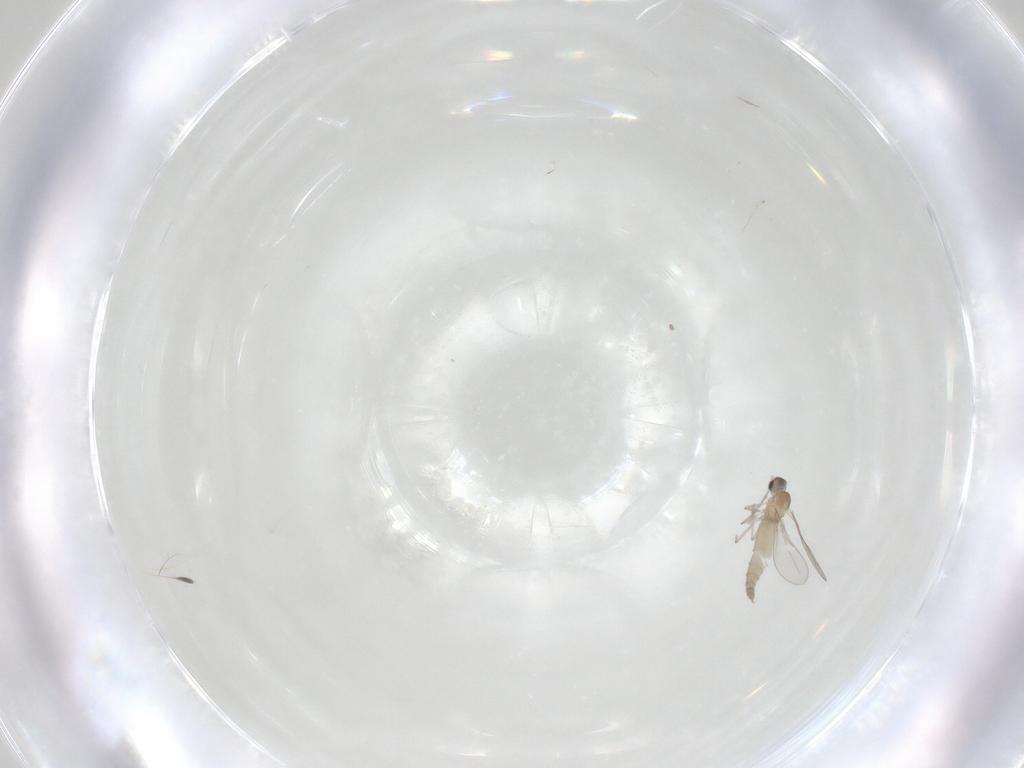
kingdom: Animalia
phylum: Arthropoda
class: Insecta
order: Diptera
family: Cecidomyiidae
